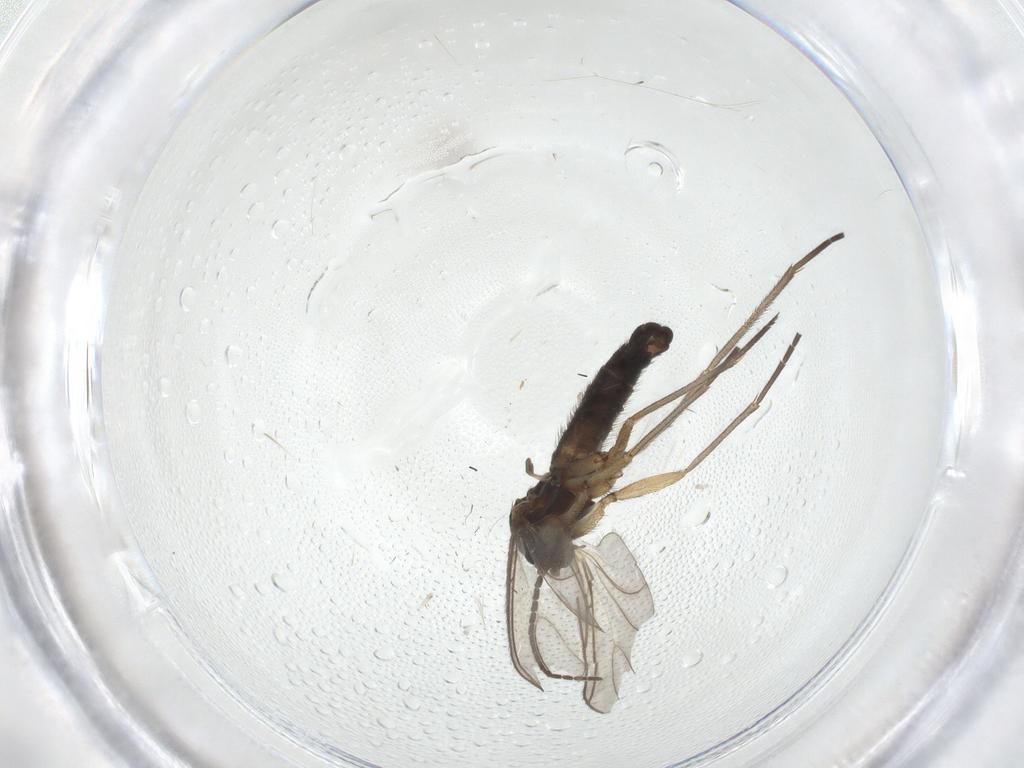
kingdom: Animalia
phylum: Arthropoda
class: Insecta
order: Diptera
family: Sciaridae
